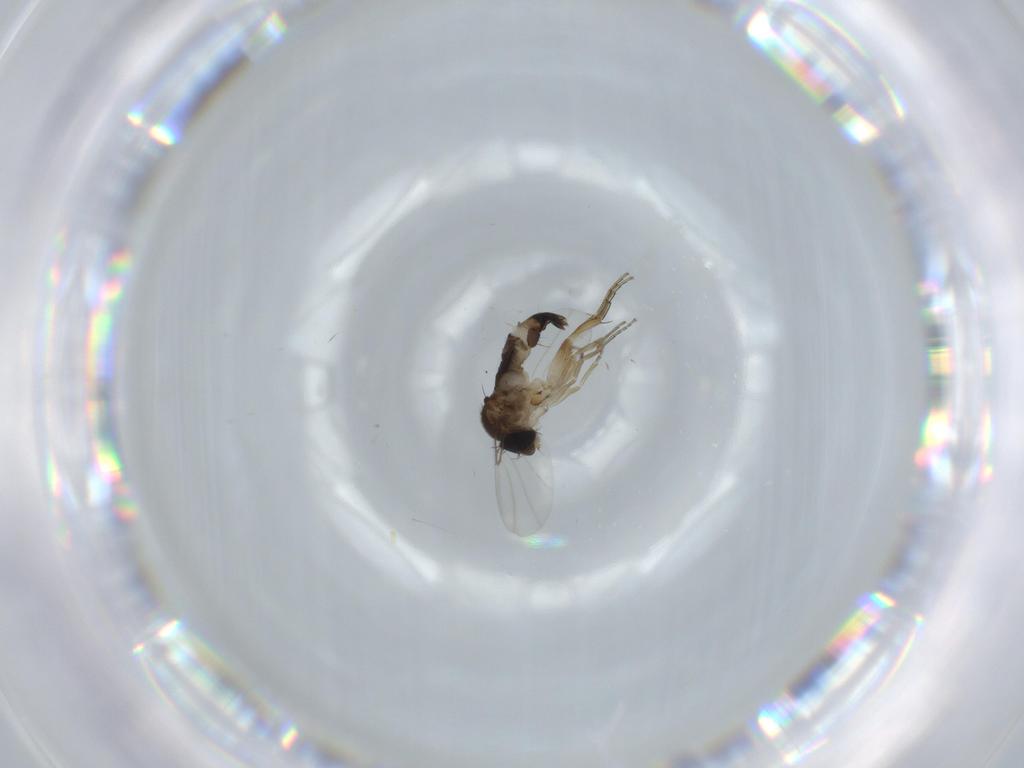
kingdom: Animalia
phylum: Arthropoda
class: Insecta
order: Diptera
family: Phoridae
